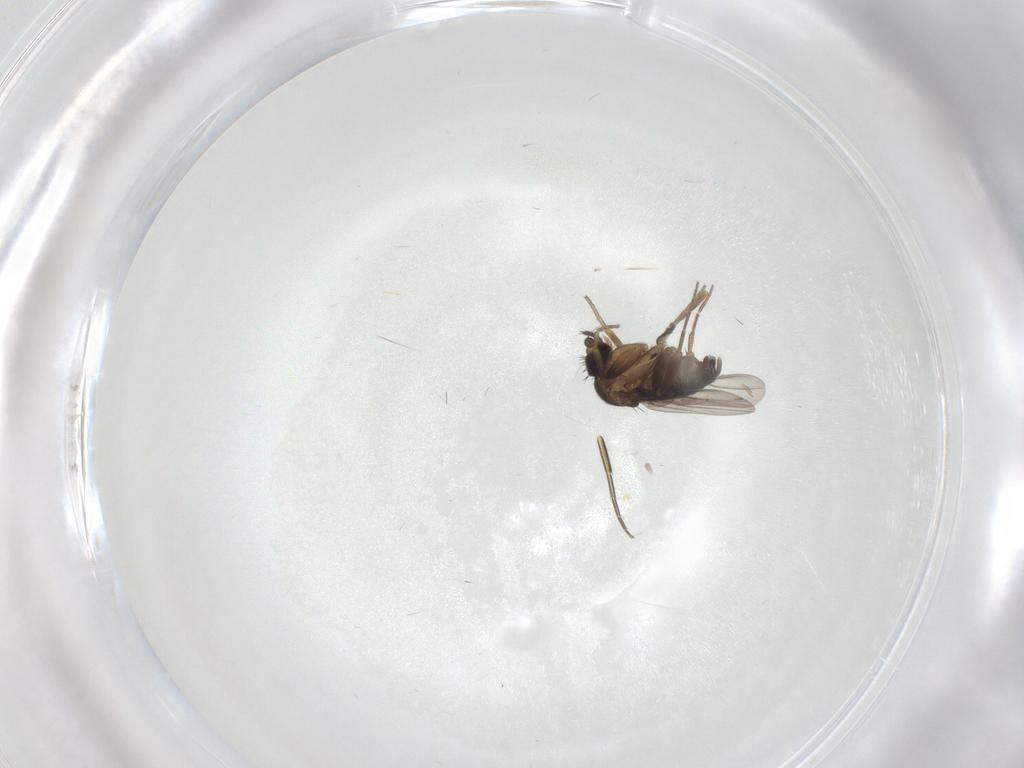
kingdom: Animalia
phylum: Arthropoda
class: Insecta
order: Diptera
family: Phoridae
